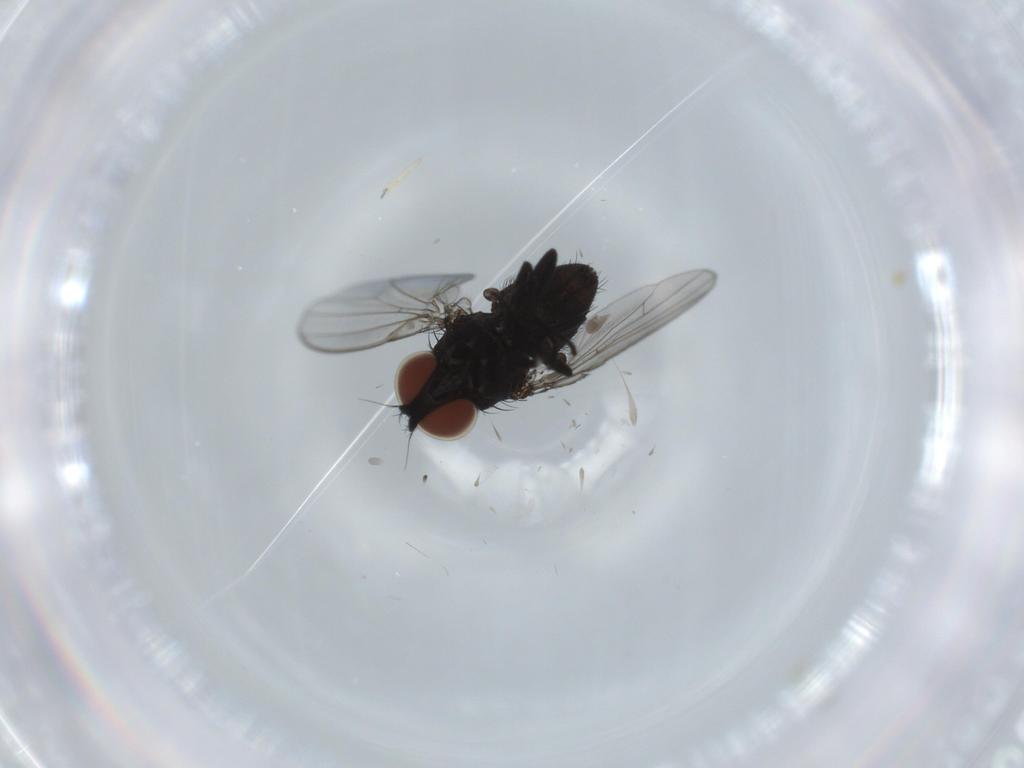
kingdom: Animalia
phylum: Arthropoda
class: Insecta
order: Diptera
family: Milichiidae
